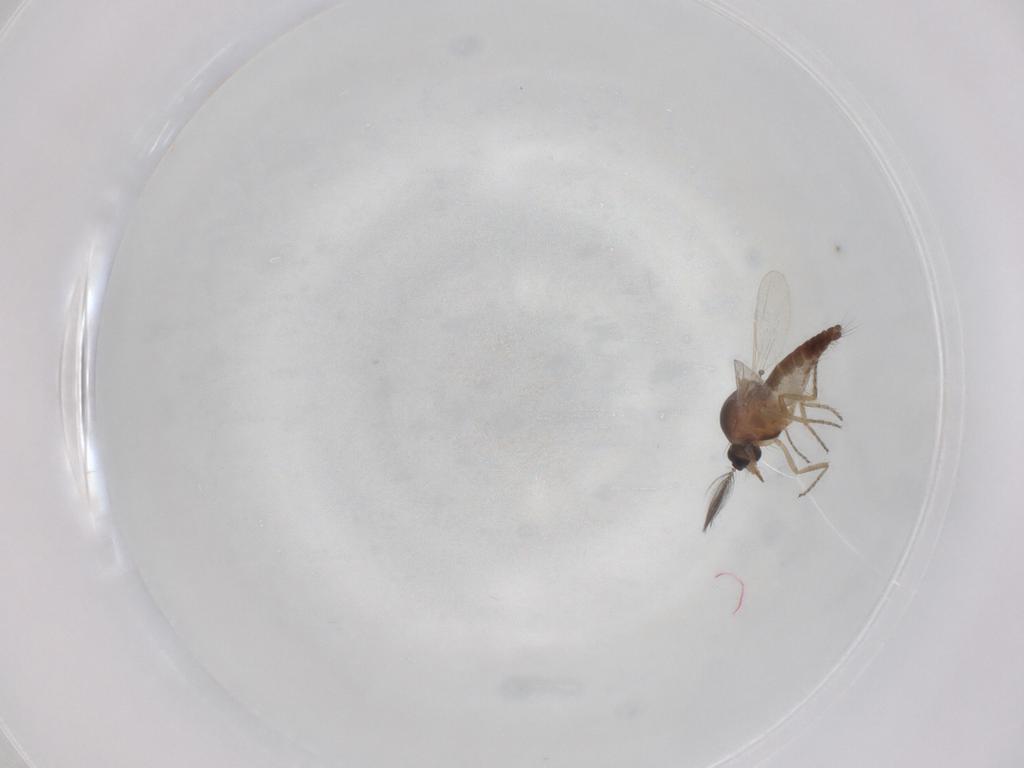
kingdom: Animalia
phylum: Arthropoda
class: Insecta
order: Diptera
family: Ceratopogonidae
